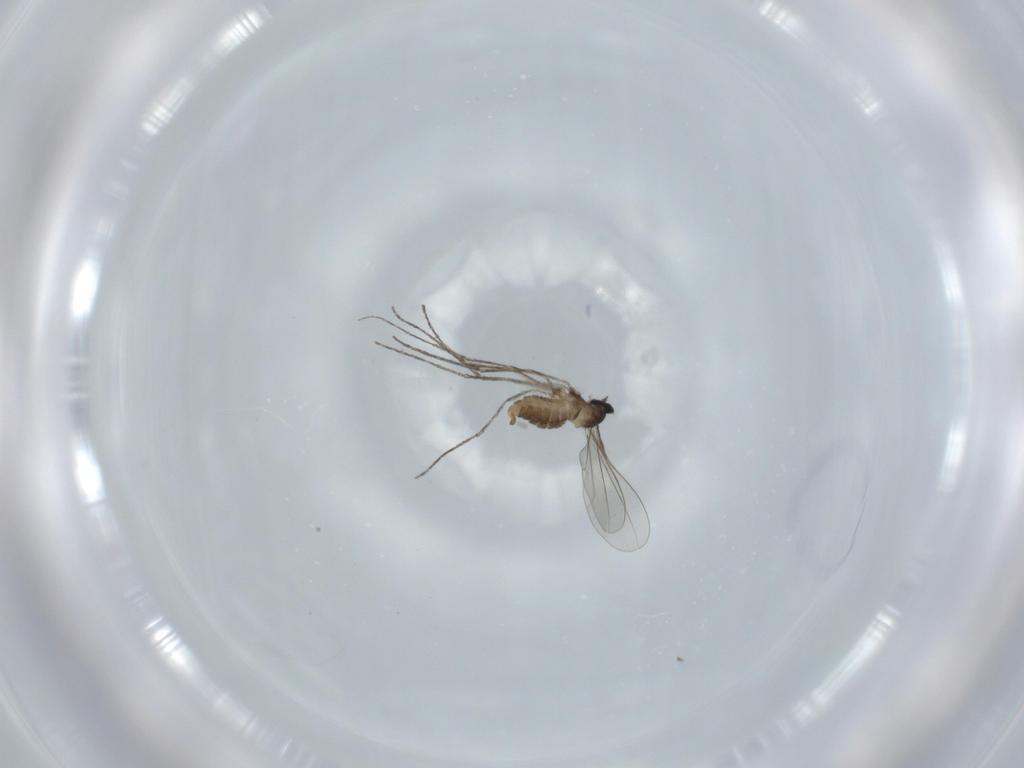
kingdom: Animalia
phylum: Arthropoda
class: Insecta
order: Diptera
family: Cecidomyiidae
